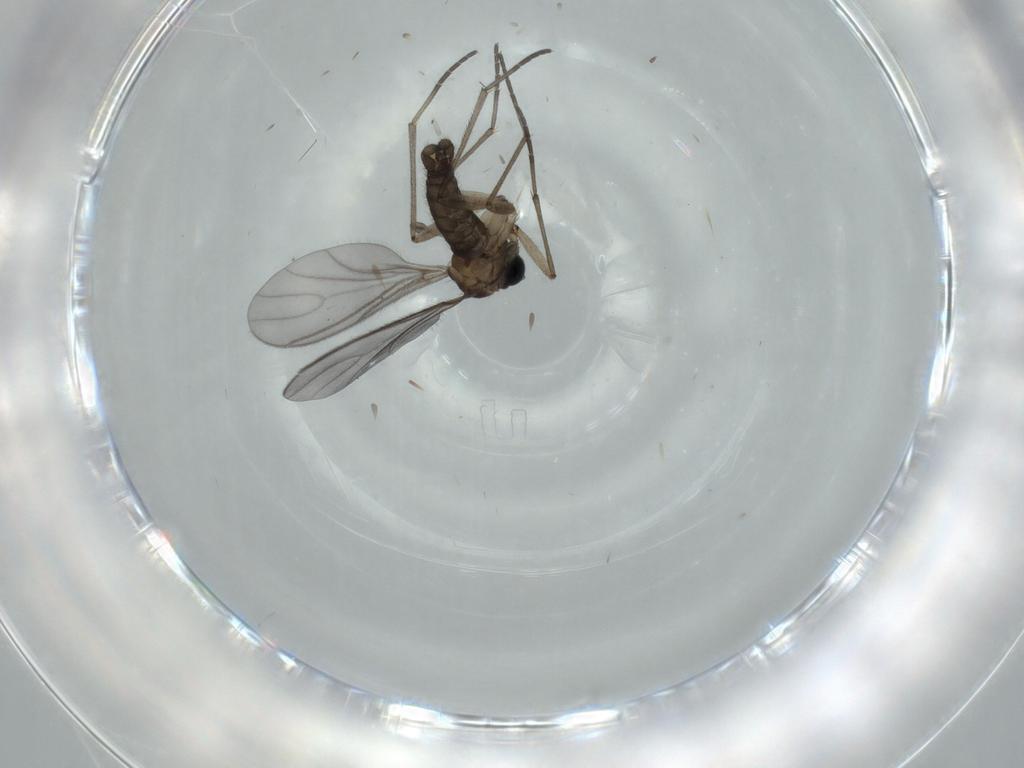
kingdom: Animalia
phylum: Arthropoda
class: Insecta
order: Diptera
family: Sciaridae
